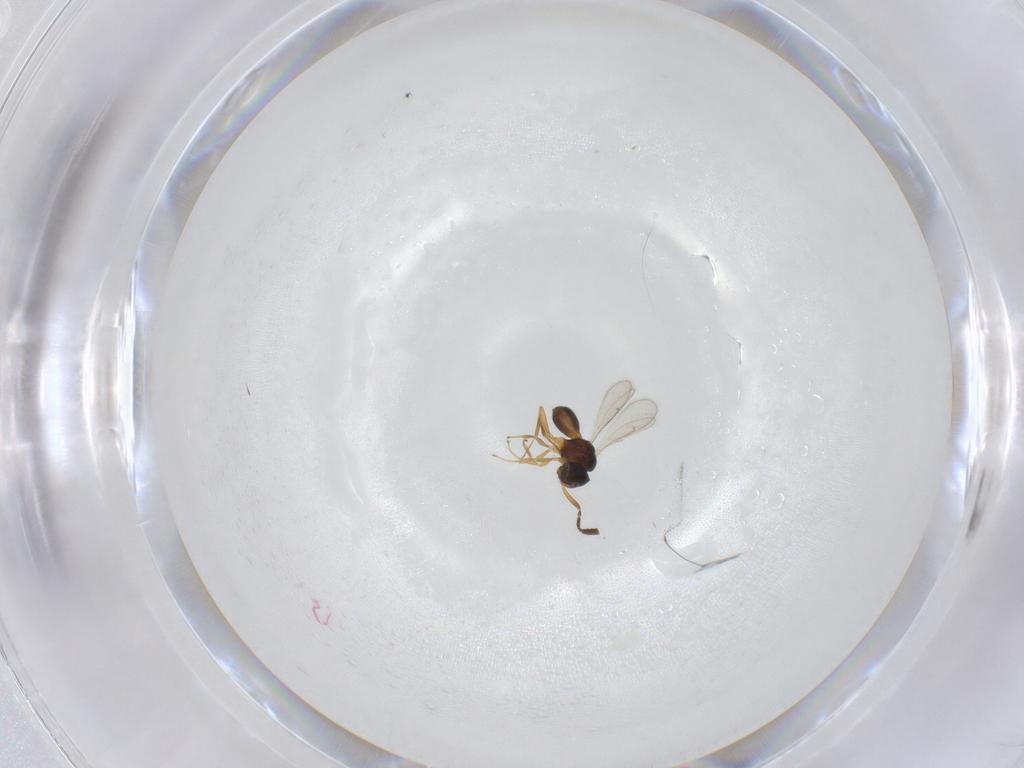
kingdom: Animalia
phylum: Arthropoda
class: Insecta
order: Hymenoptera
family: Scelionidae
